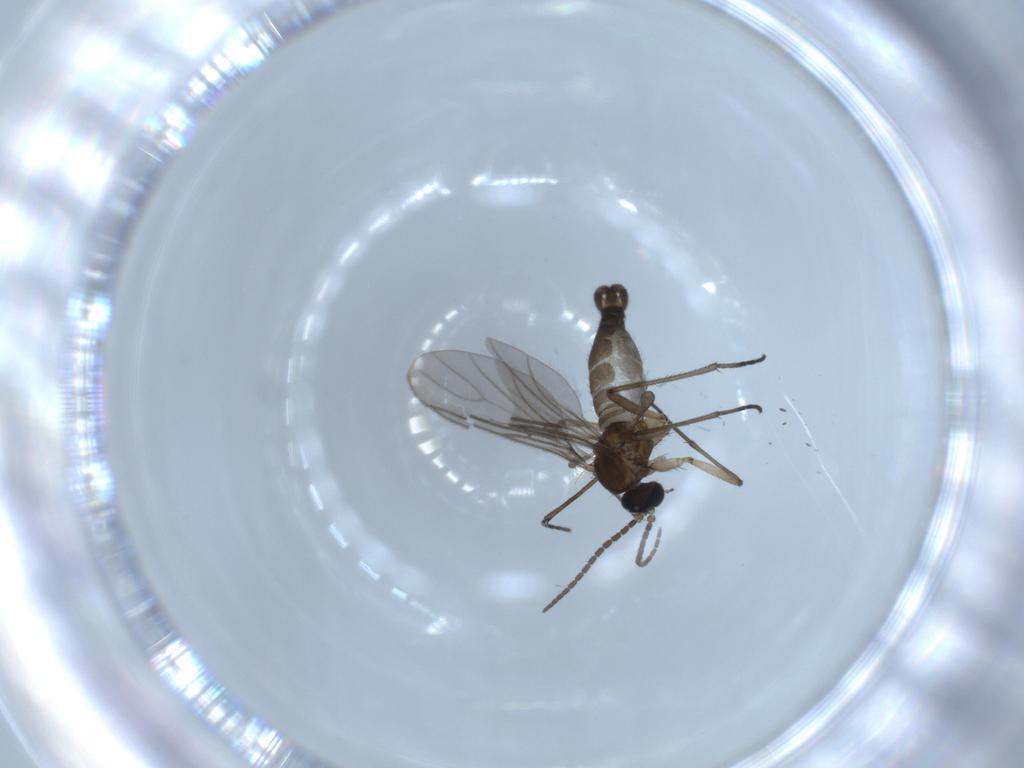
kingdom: Animalia
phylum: Arthropoda
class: Insecta
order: Diptera
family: Sciaridae
